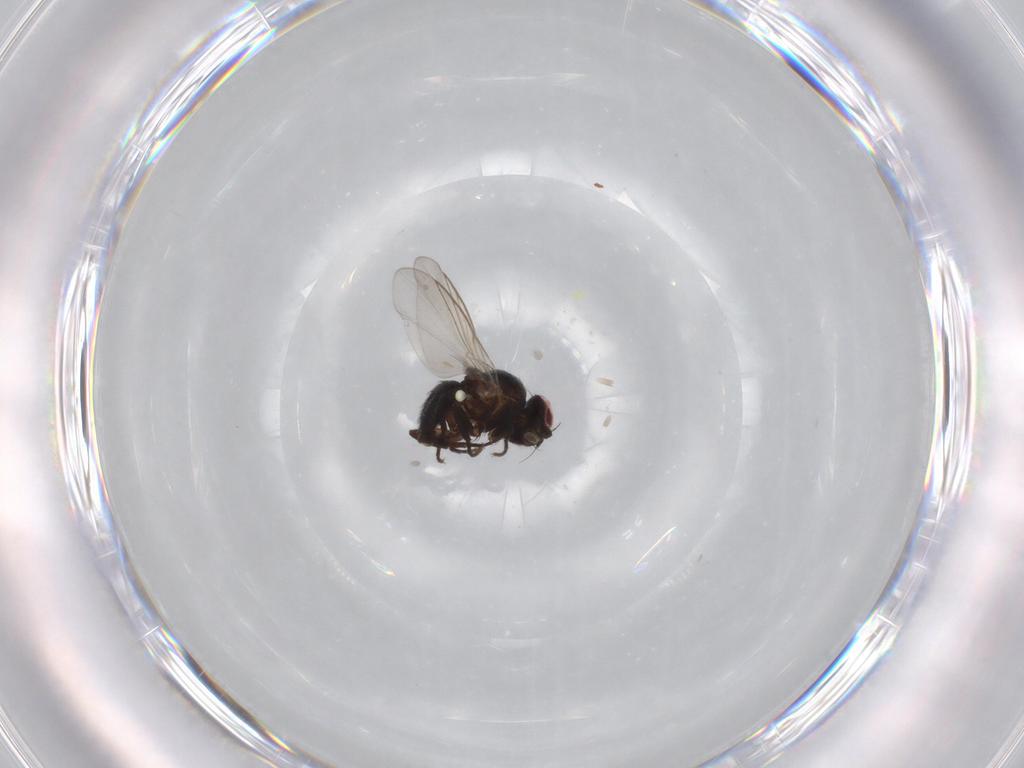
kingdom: Animalia
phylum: Arthropoda
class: Insecta
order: Diptera
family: Agromyzidae
